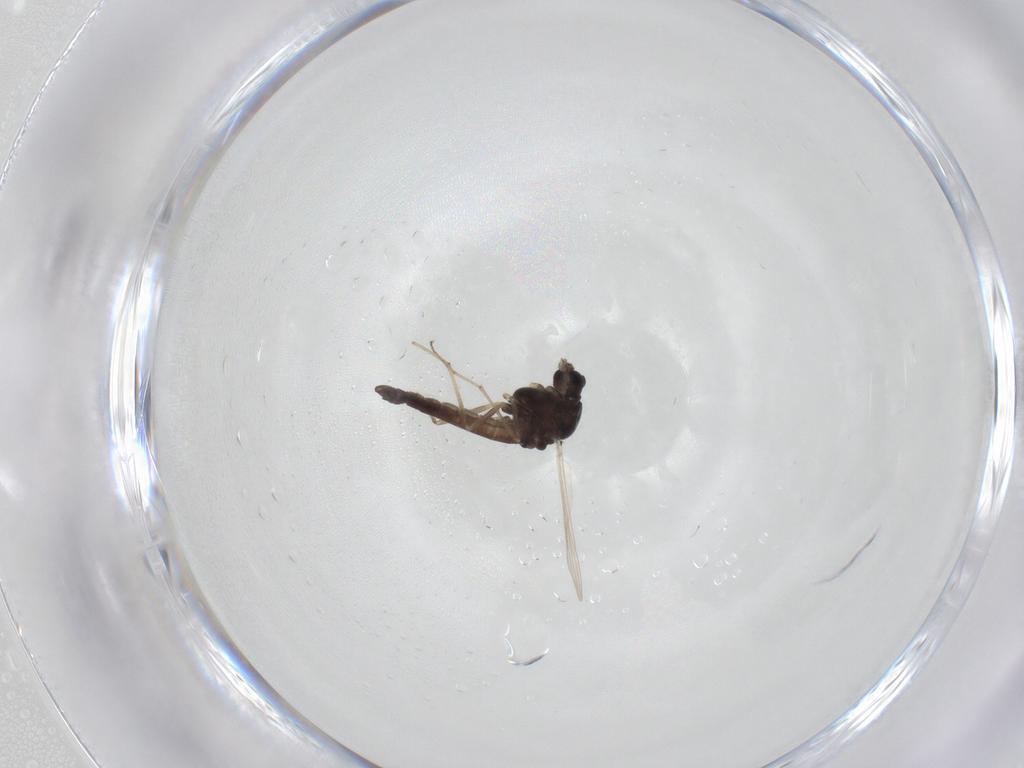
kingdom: Animalia
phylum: Arthropoda
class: Insecta
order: Diptera
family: Chironomidae
